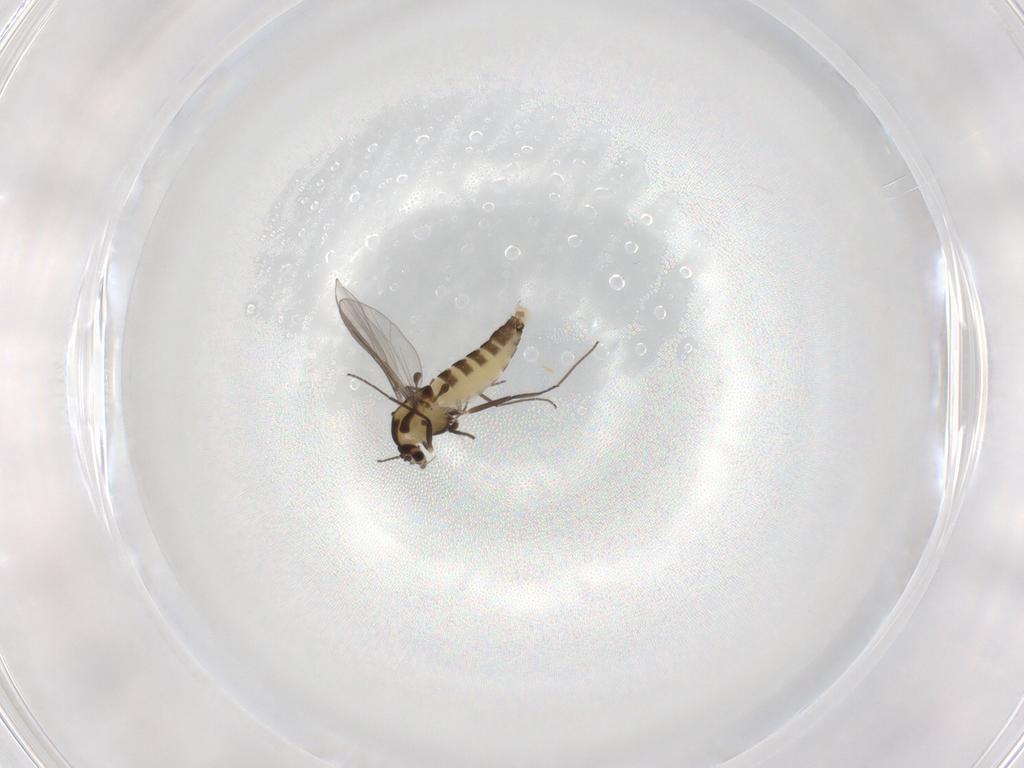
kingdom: Animalia
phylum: Arthropoda
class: Insecta
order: Diptera
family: Chironomidae
